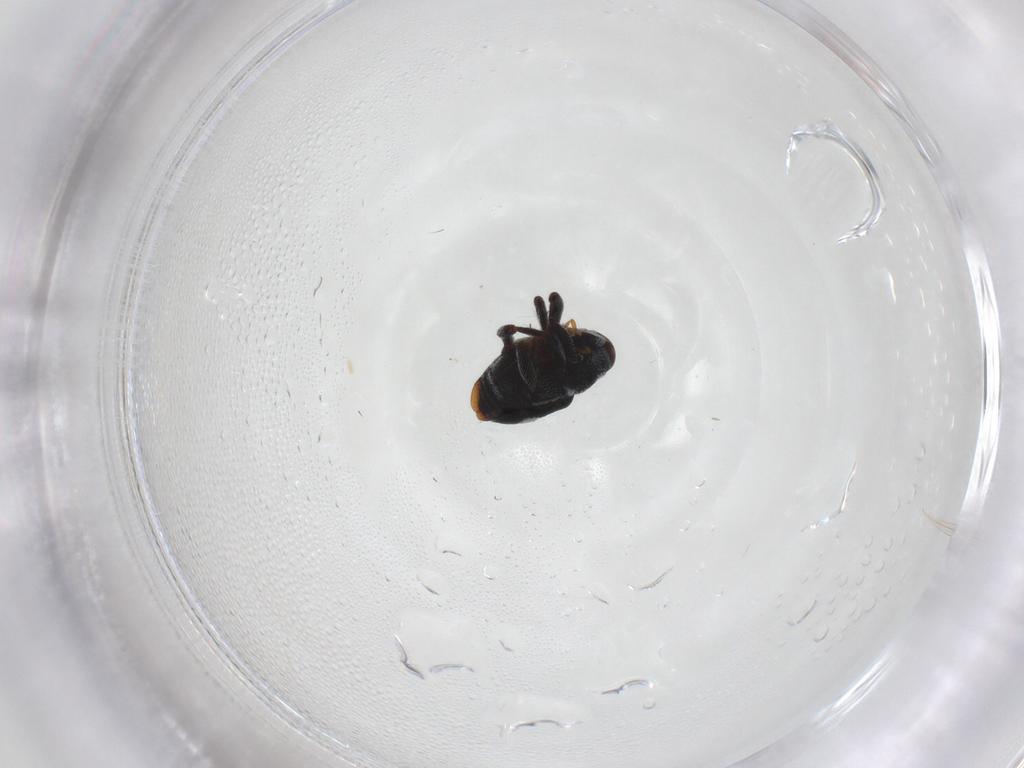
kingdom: Animalia
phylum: Arthropoda
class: Insecta
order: Coleoptera
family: Curculionidae
